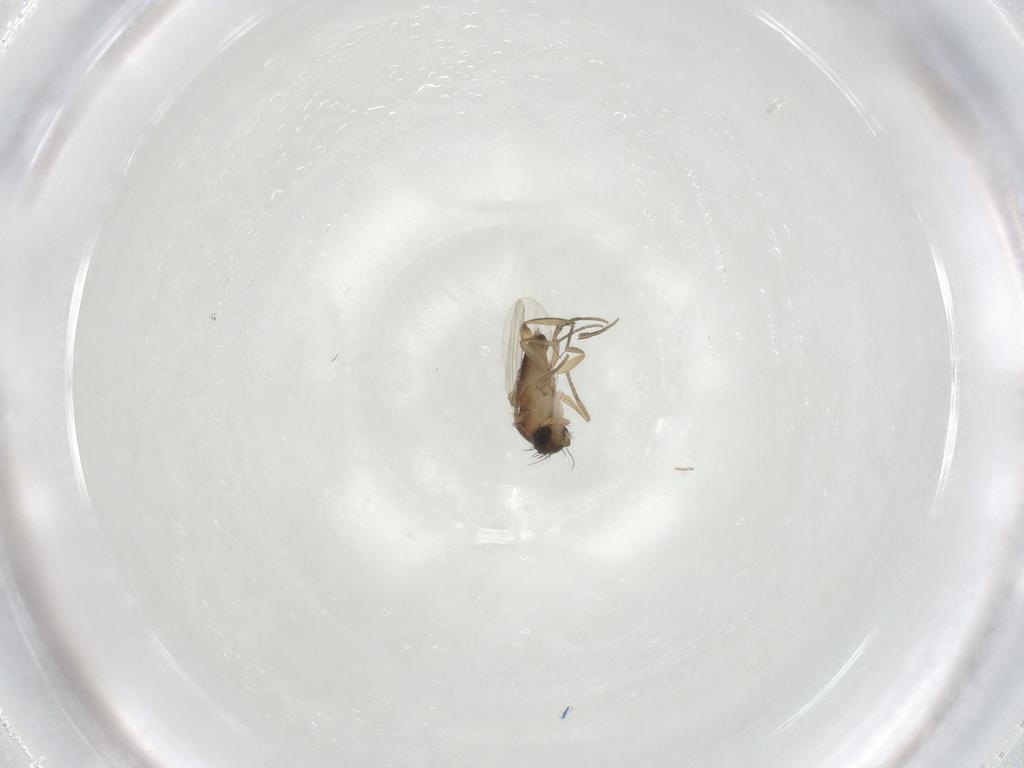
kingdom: Animalia
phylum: Arthropoda
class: Insecta
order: Diptera
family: Phoridae
